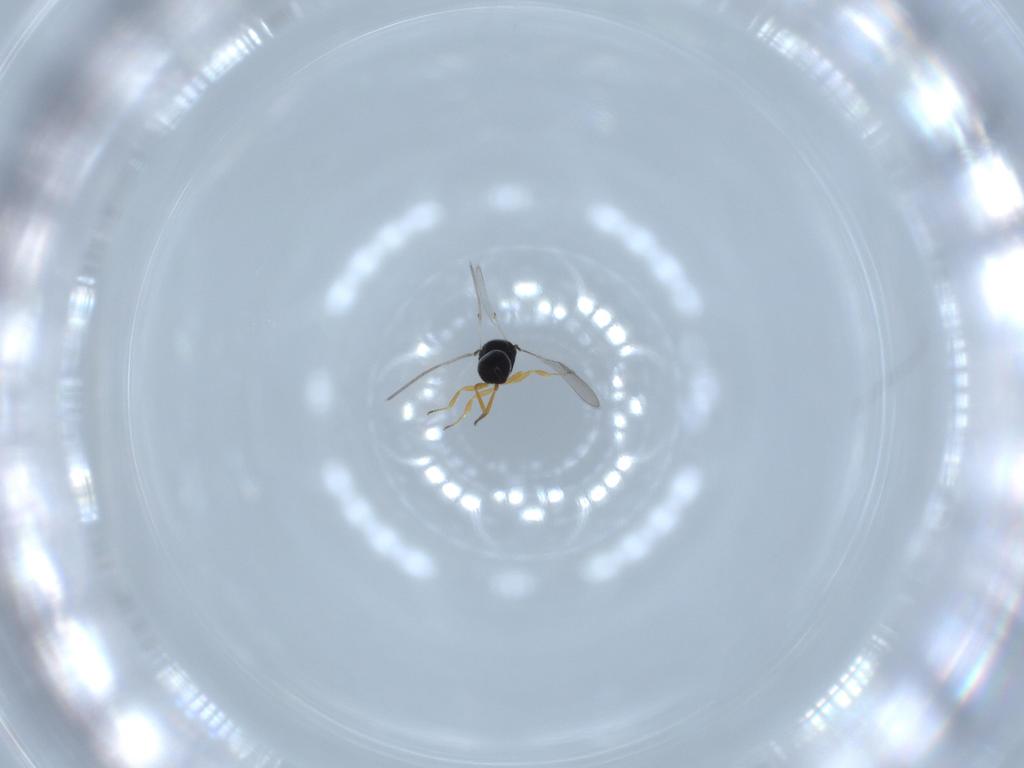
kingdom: Animalia
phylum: Arthropoda
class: Insecta
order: Hymenoptera
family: Scelionidae
